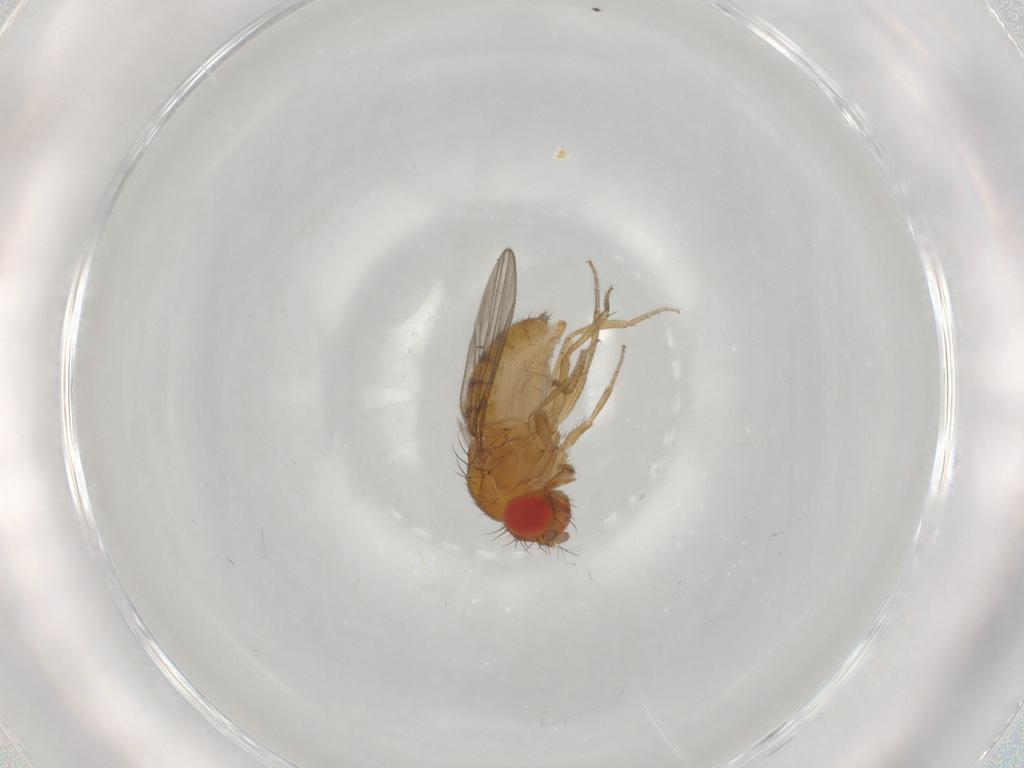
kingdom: Animalia
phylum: Arthropoda
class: Insecta
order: Diptera
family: Drosophilidae
